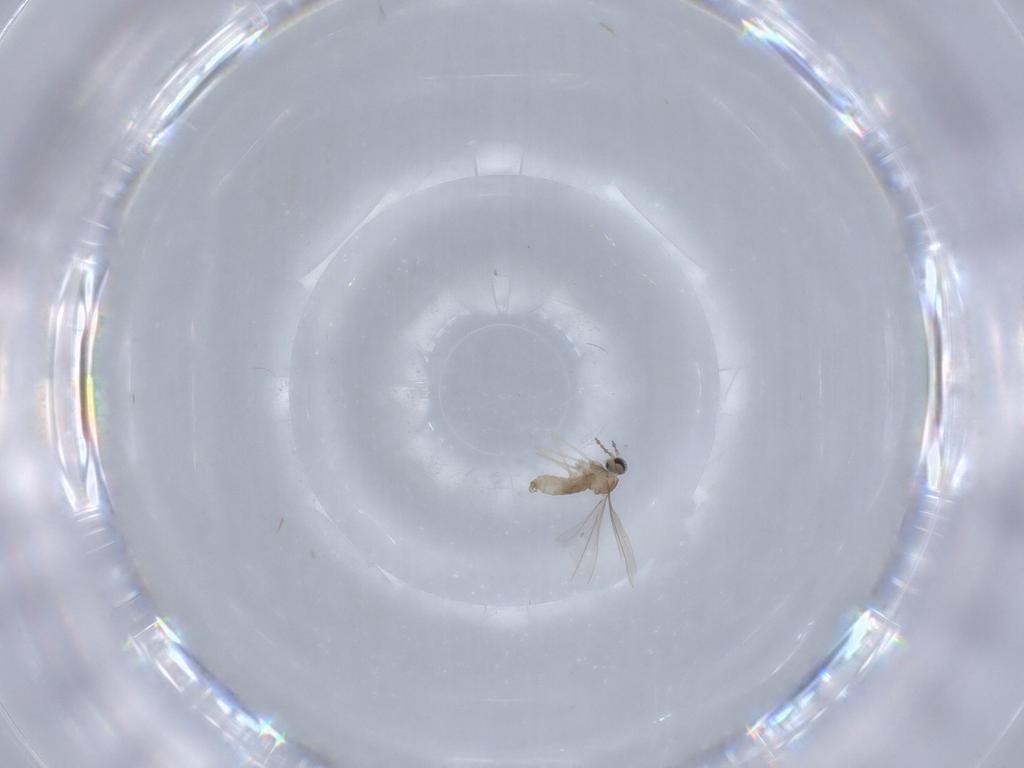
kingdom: Animalia
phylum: Arthropoda
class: Insecta
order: Diptera
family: Cecidomyiidae
